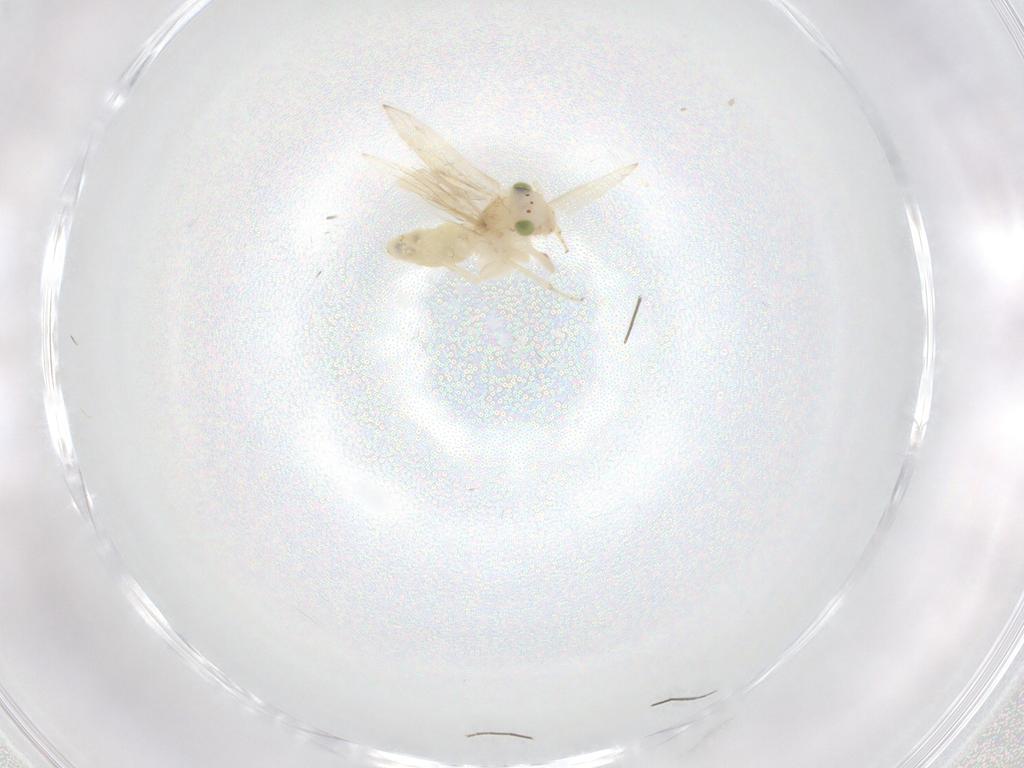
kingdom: Animalia
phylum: Arthropoda
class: Insecta
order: Psocodea
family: Lepidopsocidae
